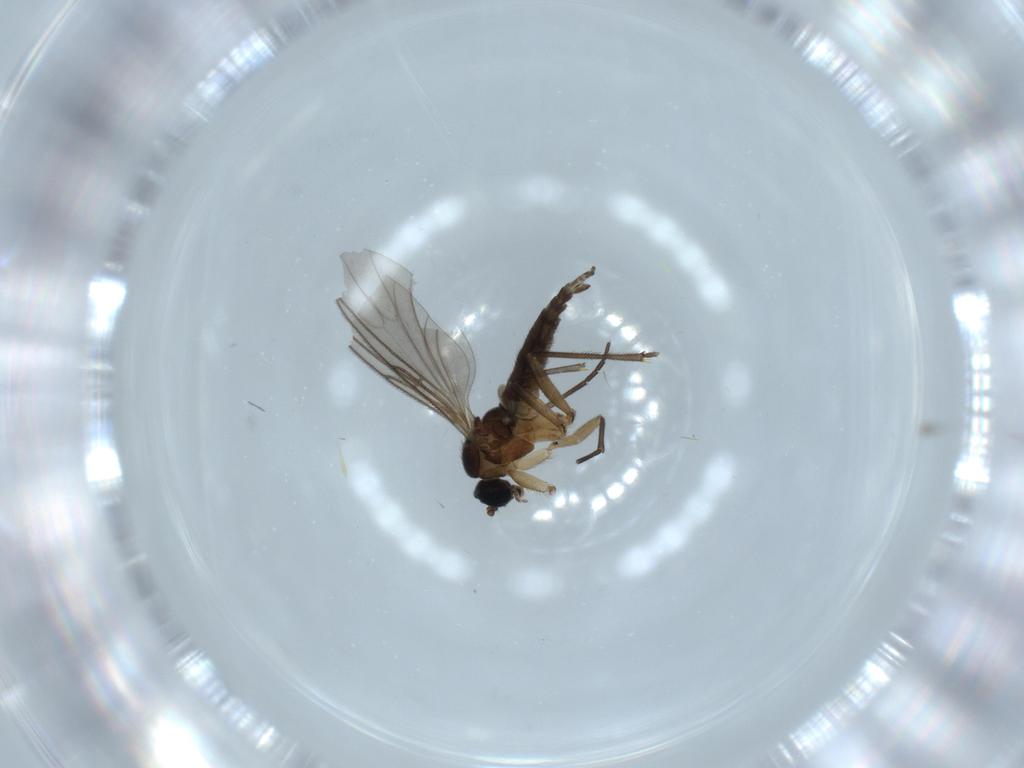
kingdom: Animalia
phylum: Arthropoda
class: Insecta
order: Diptera
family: Sciaridae
